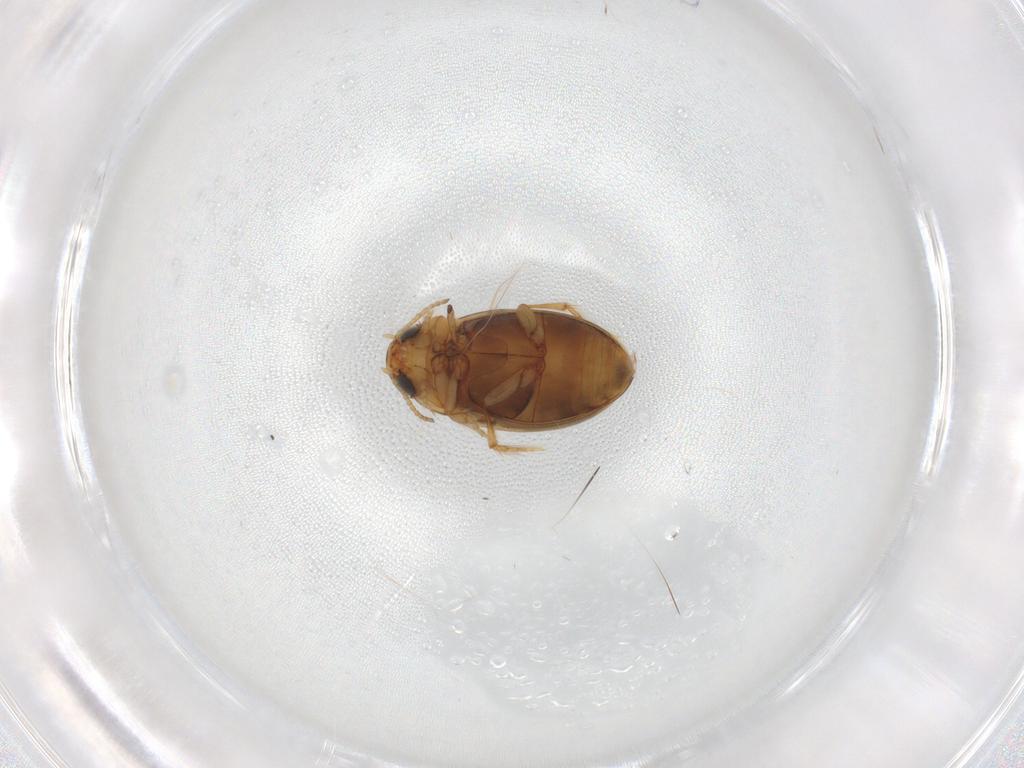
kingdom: Animalia
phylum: Arthropoda
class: Insecta
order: Coleoptera
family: Dytiscidae
